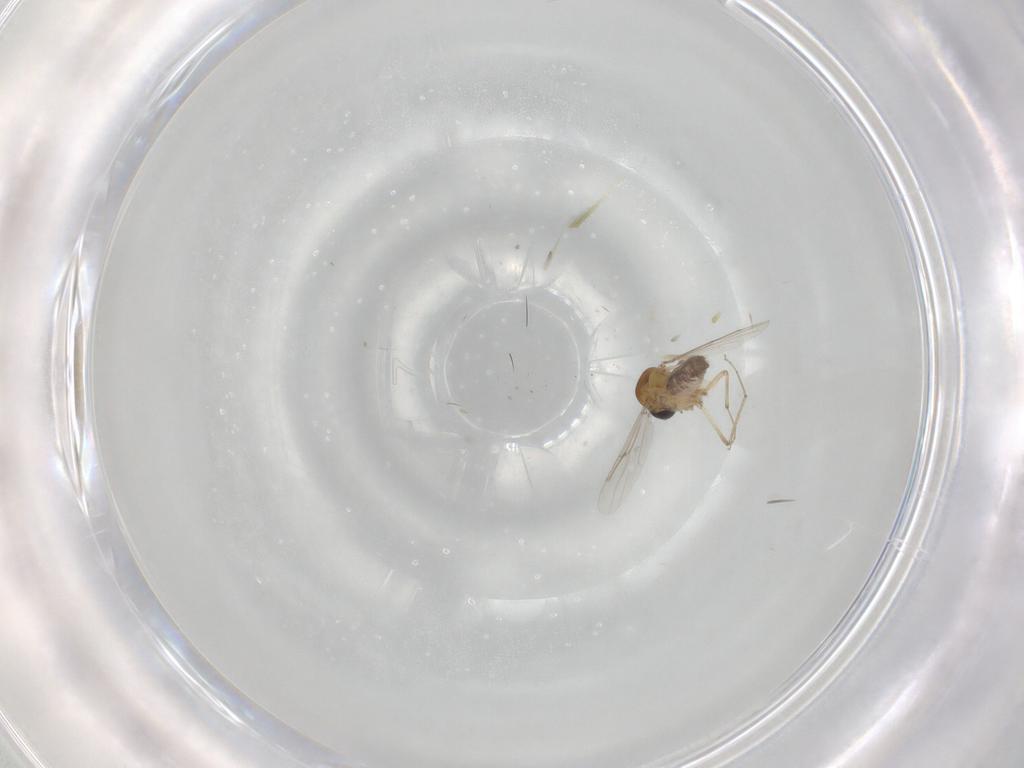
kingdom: Animalia
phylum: Arthropoda
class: Insecta
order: Diptera
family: Ceratopogonidae
